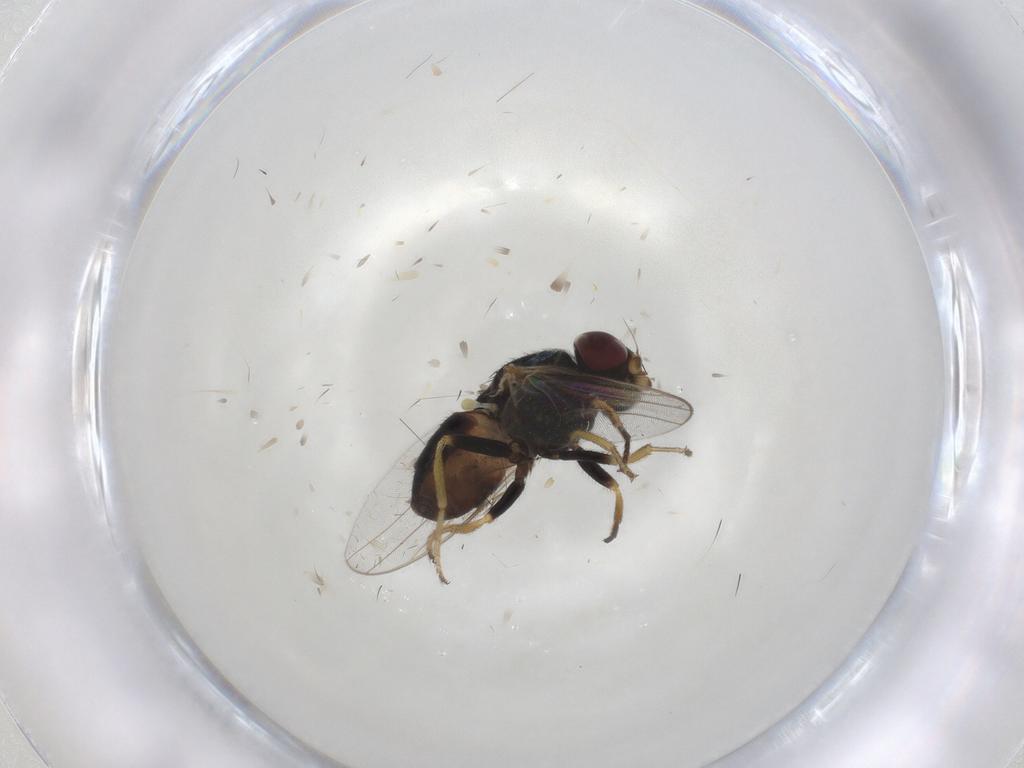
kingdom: Animalia
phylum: Arthropoda
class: Insecta
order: Diptera
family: Chloropidae
